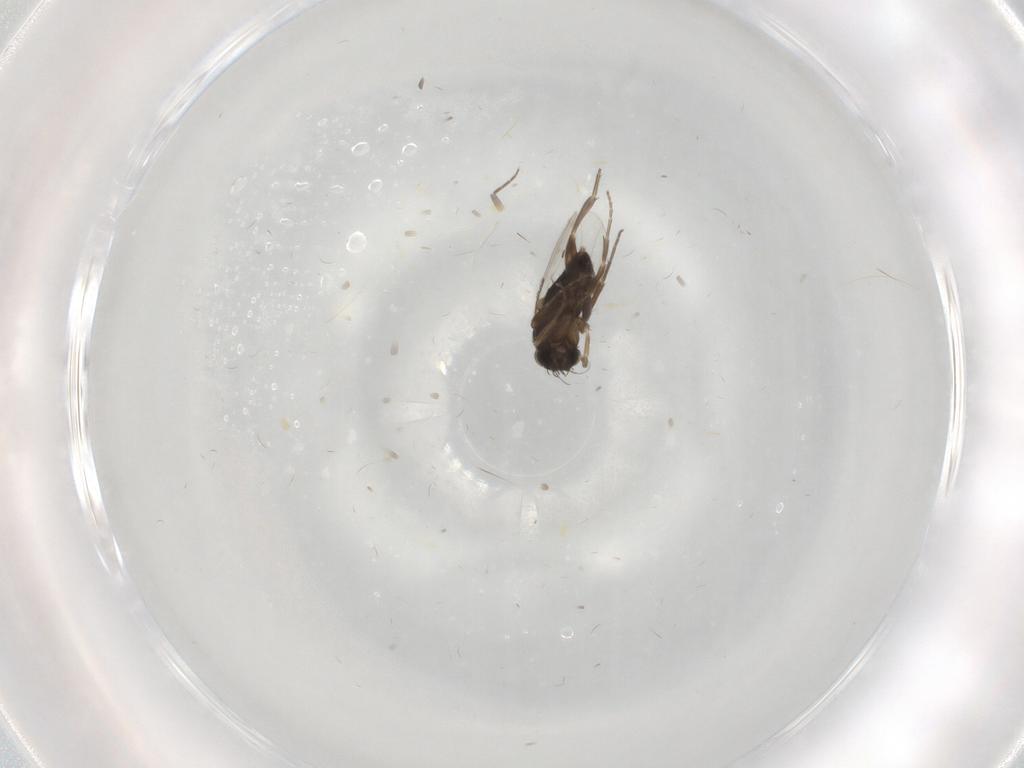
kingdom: Animalia
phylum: Arthropoda
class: Insecta
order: Diptera
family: Phoridae
